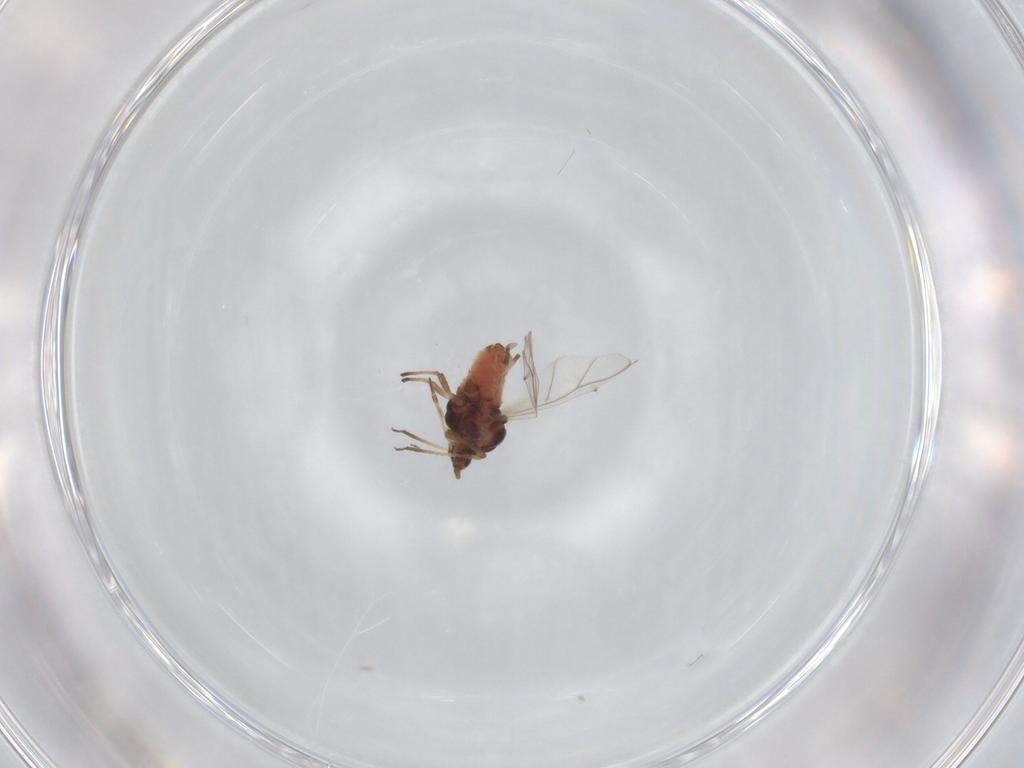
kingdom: Animalia
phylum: Arthropoda
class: Insecta
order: Hemiptera
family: Aphididae
